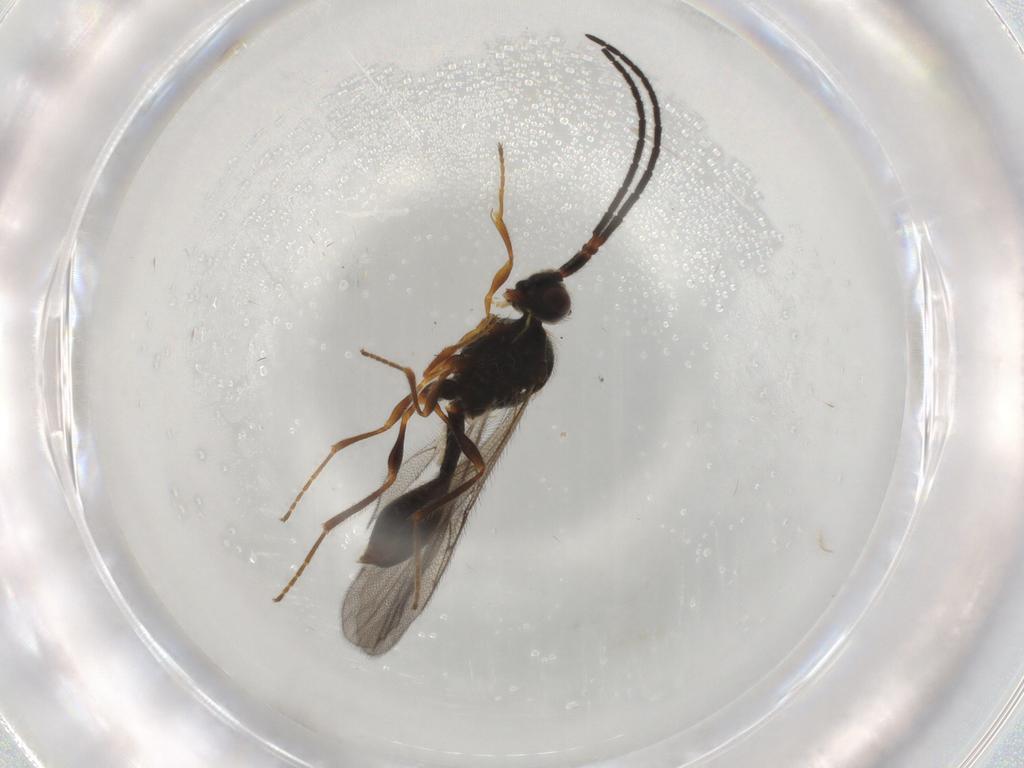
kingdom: Animalia
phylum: Arthropoda
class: Insecta
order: Hymenoptera
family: Diapriidae
